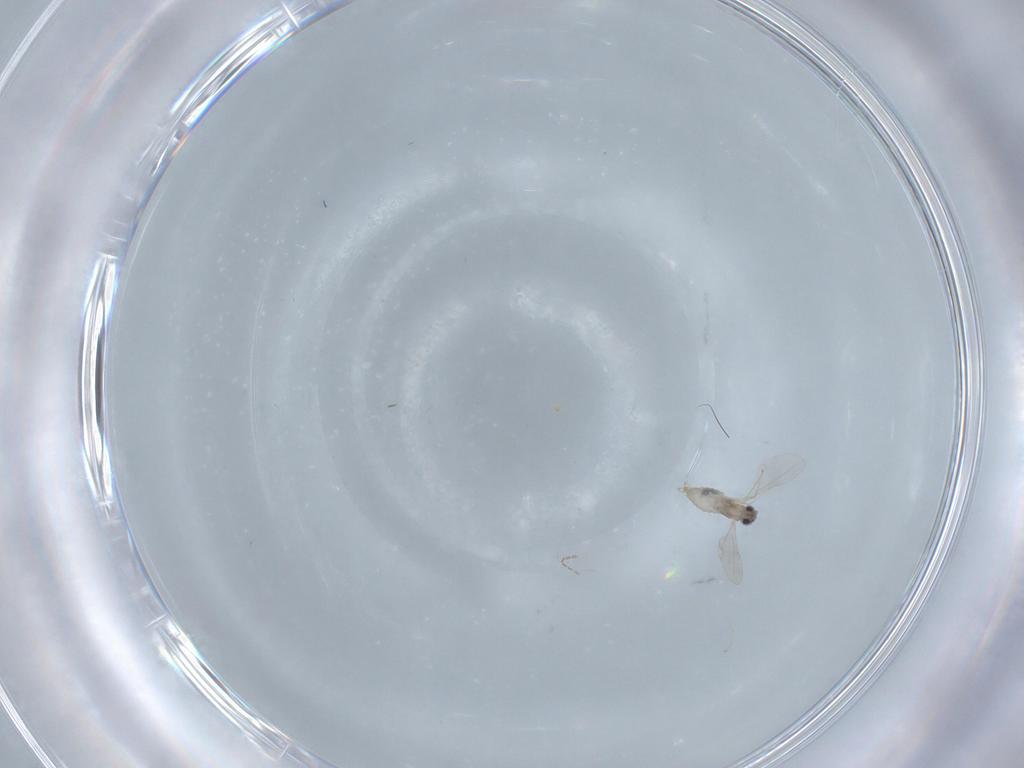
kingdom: Animalia
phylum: Arthropoda
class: Insecta
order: Diptera
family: Cecidomyiidae
